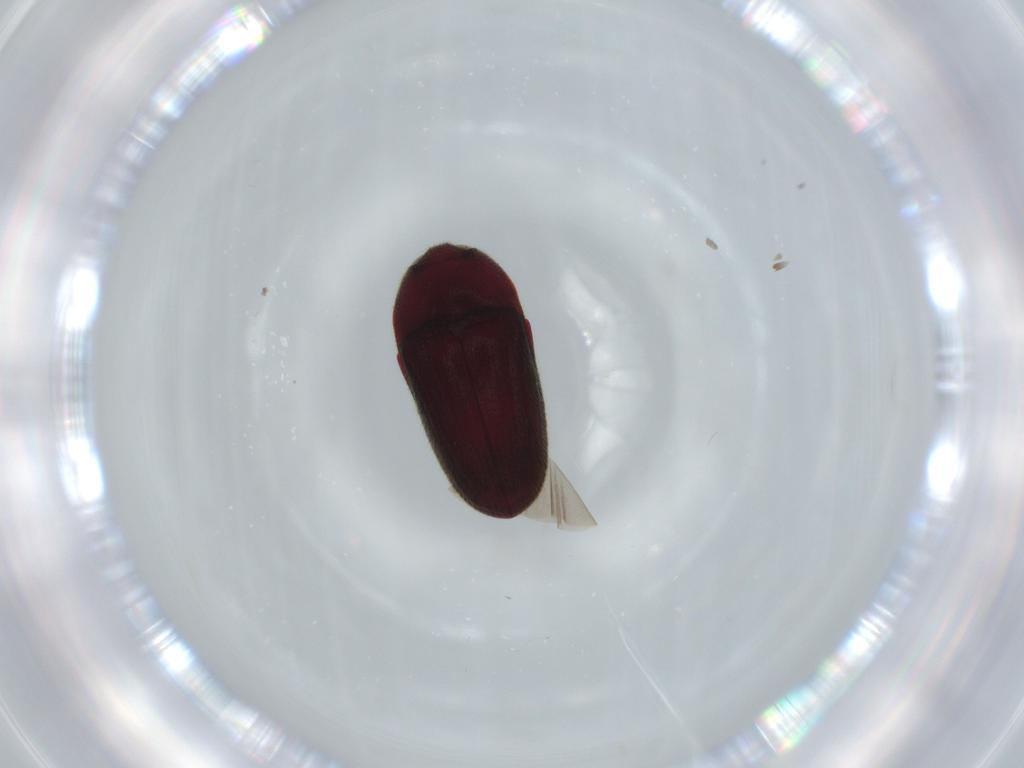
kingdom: Animalia
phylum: Arthropoda
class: Insecta
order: Coleoptera
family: Throscidae
